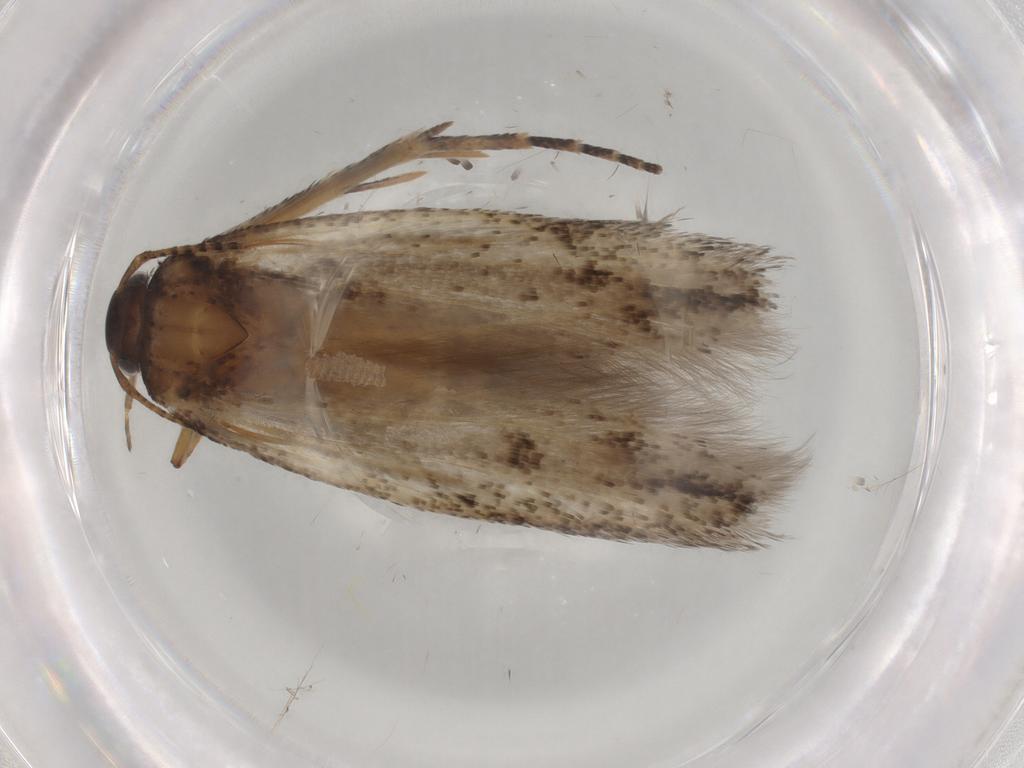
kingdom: Animalia
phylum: Arthropoda
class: Insecta
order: Lepidoptera
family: Gelechiidae
